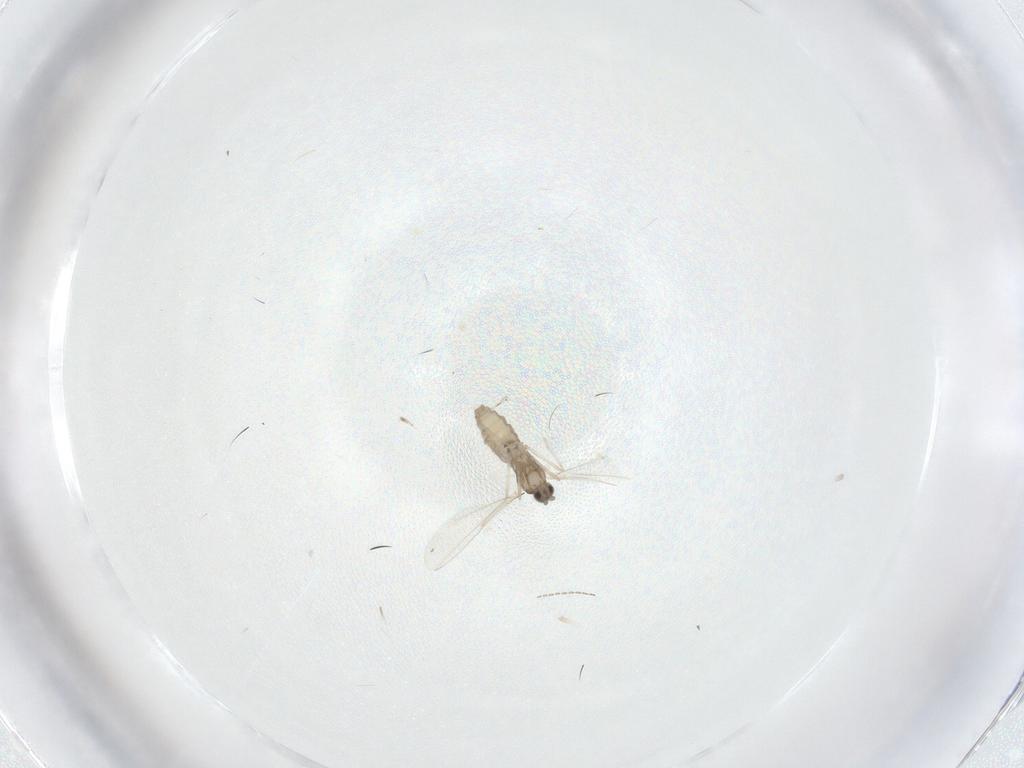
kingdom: Animalia
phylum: Arthropoda
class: Insecta
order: Diptera
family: Cecidomyiidae
